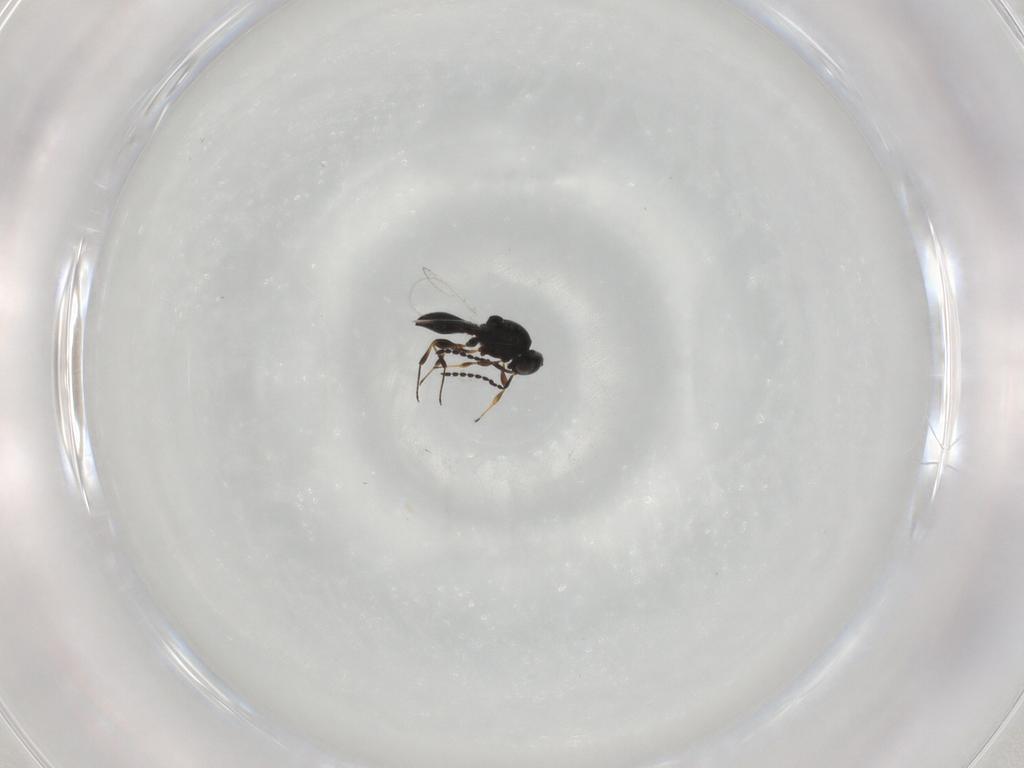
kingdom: Animalia
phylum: Arthropoda
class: Insecta
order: Hymenoptera
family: Platygastridae
